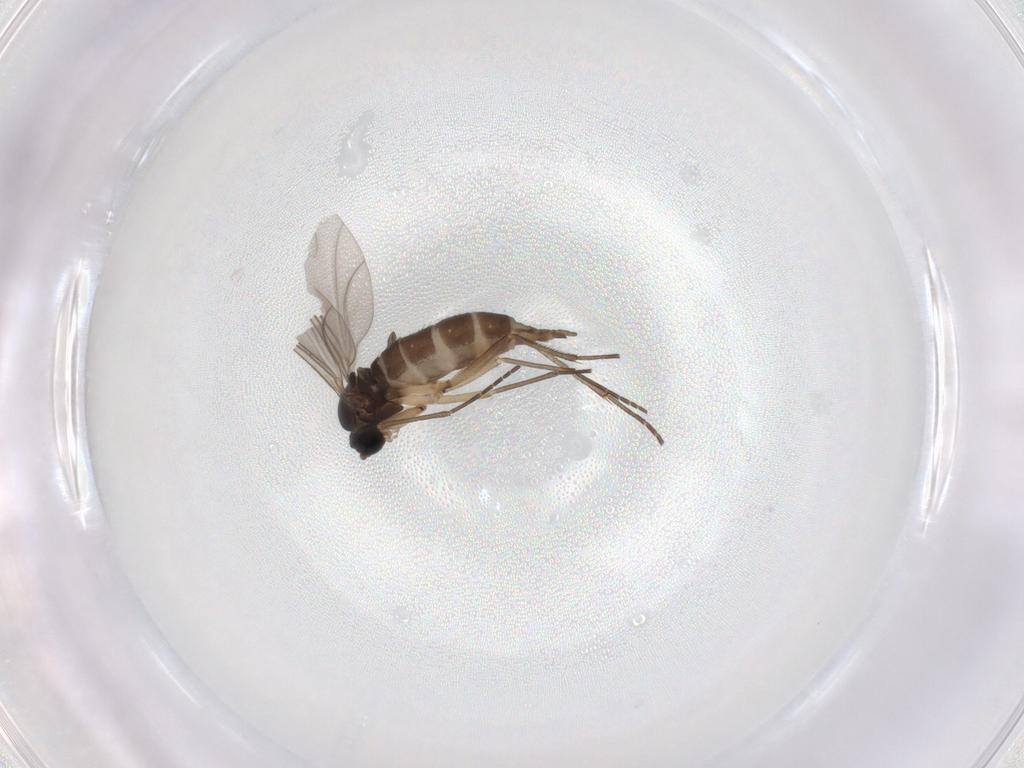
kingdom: Animalia
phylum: Arthropoda
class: Insecta
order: Diptera
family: Sciaridae
